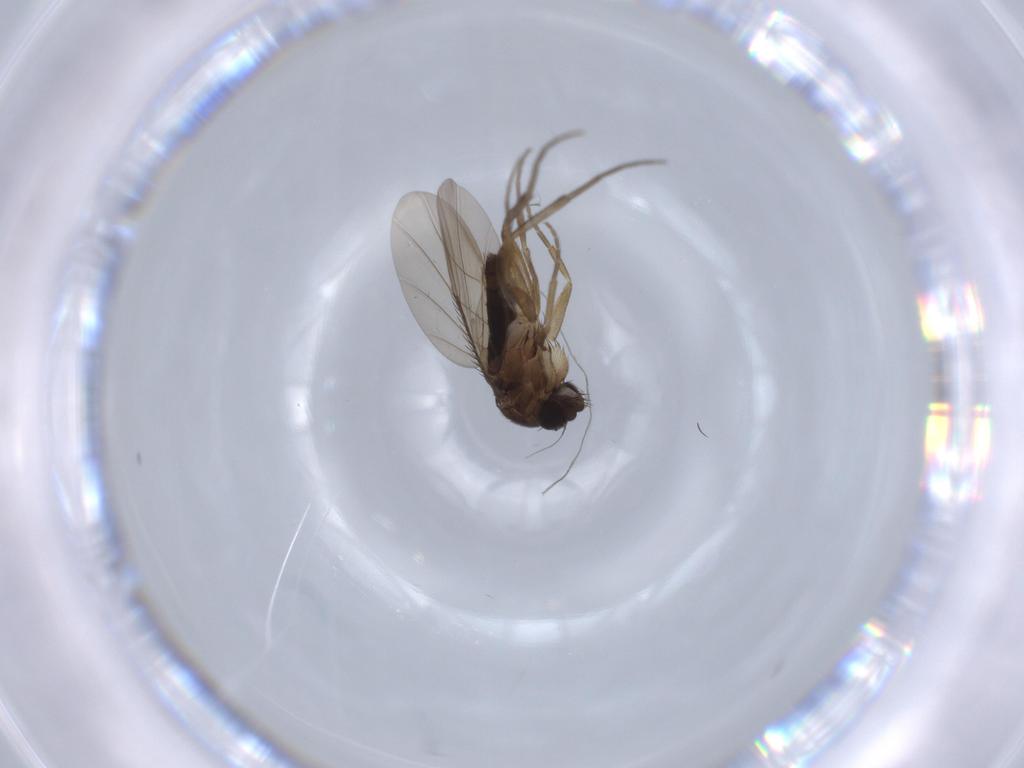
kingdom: Animalia
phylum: Arthropoda
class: Insecta
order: Diptera
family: Phoridae
